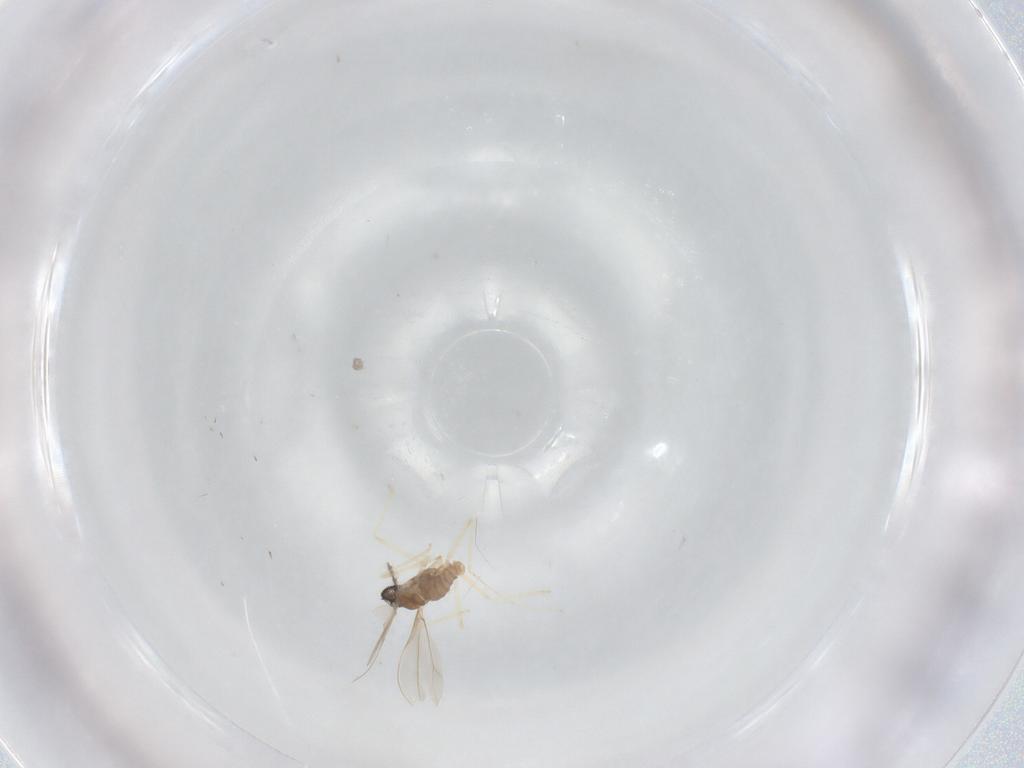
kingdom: Animalia
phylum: Arthropoda
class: Insecta
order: Diptera
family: Cecidomyiidae
